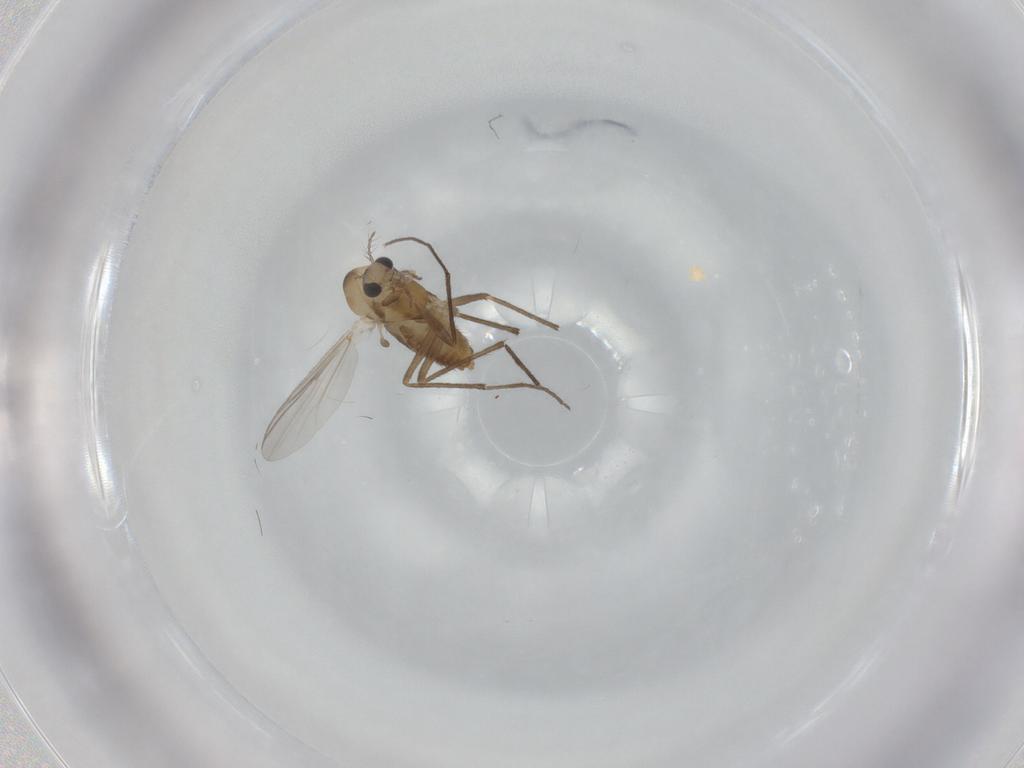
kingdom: Animalia
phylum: Arthropoda
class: Insecta
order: Diptera
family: Chironomidae
